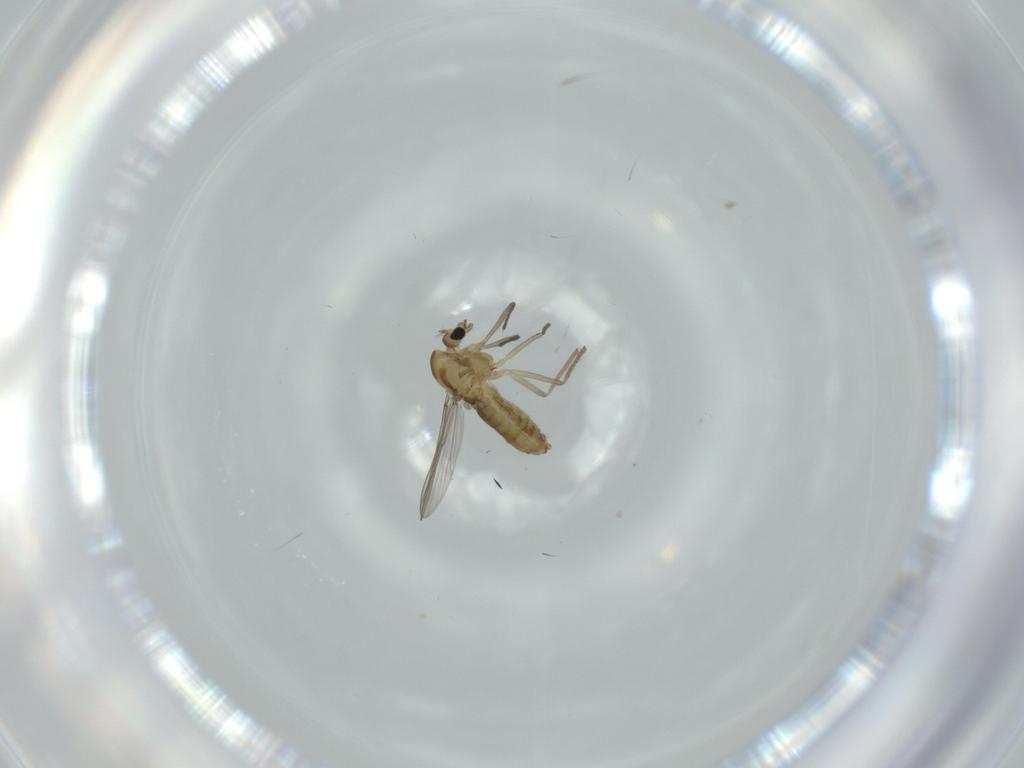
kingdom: Animalia
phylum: Arthropoda
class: Insecta
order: Diptera
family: Chironomidae
